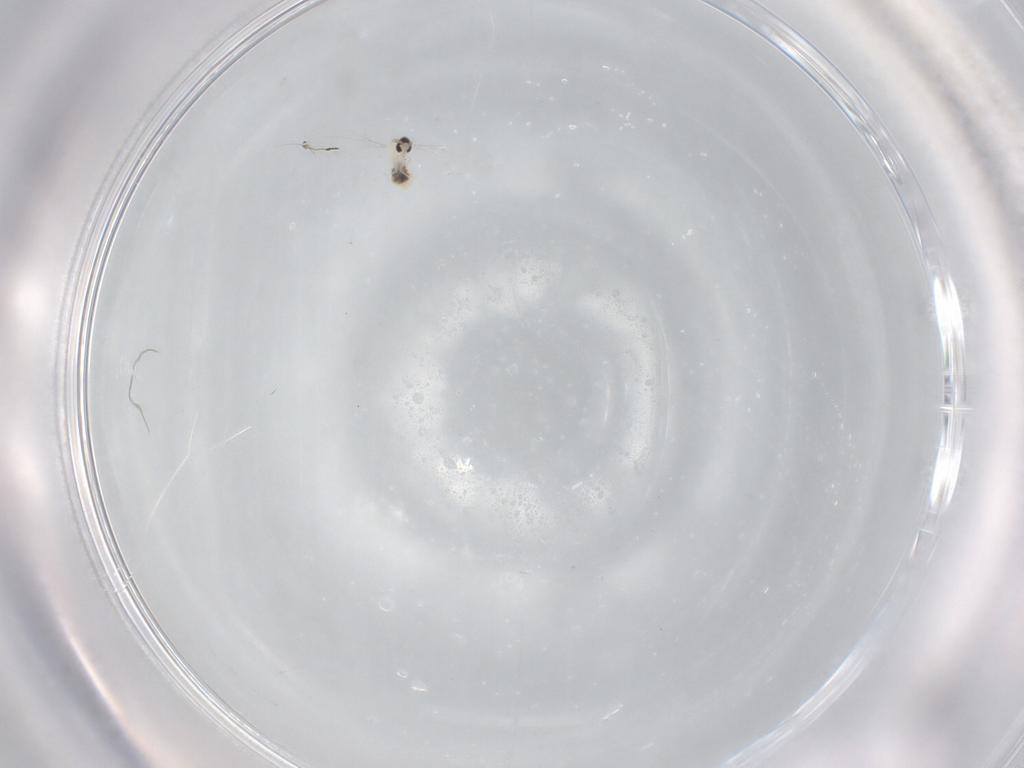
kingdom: Animalia
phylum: Arthropoda
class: Insecta
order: Diptera
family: Cecidomyiidae
